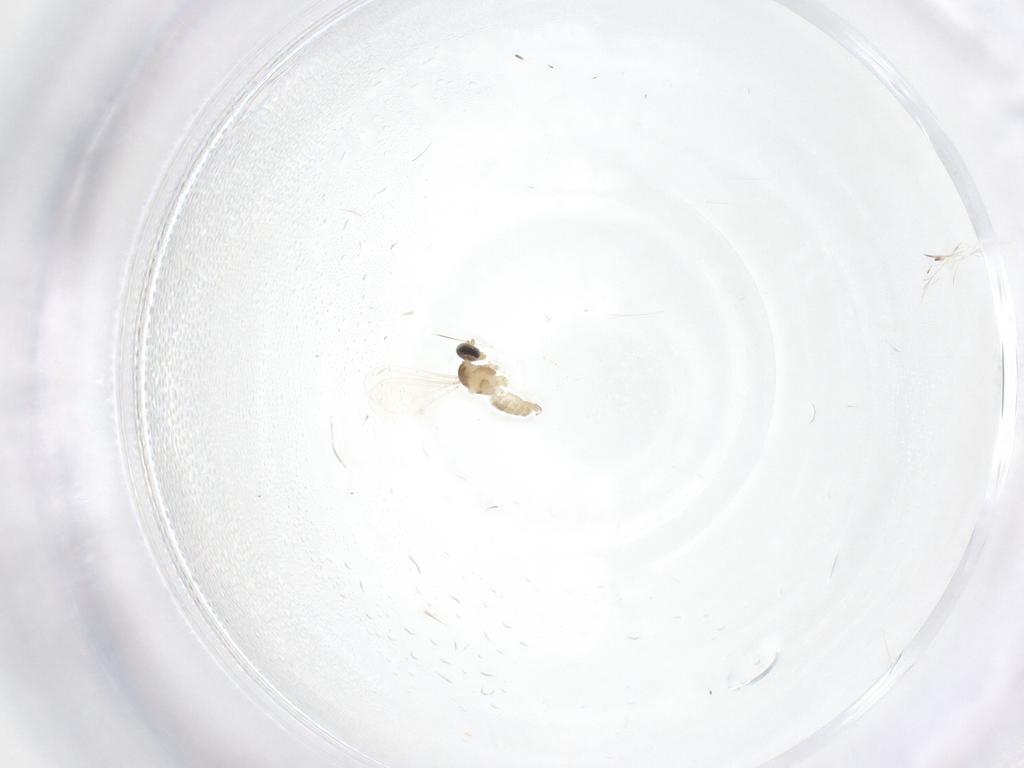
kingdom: Animalia
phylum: Arthropoda
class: Insecta
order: Diptera
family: Cecidomyiidae
